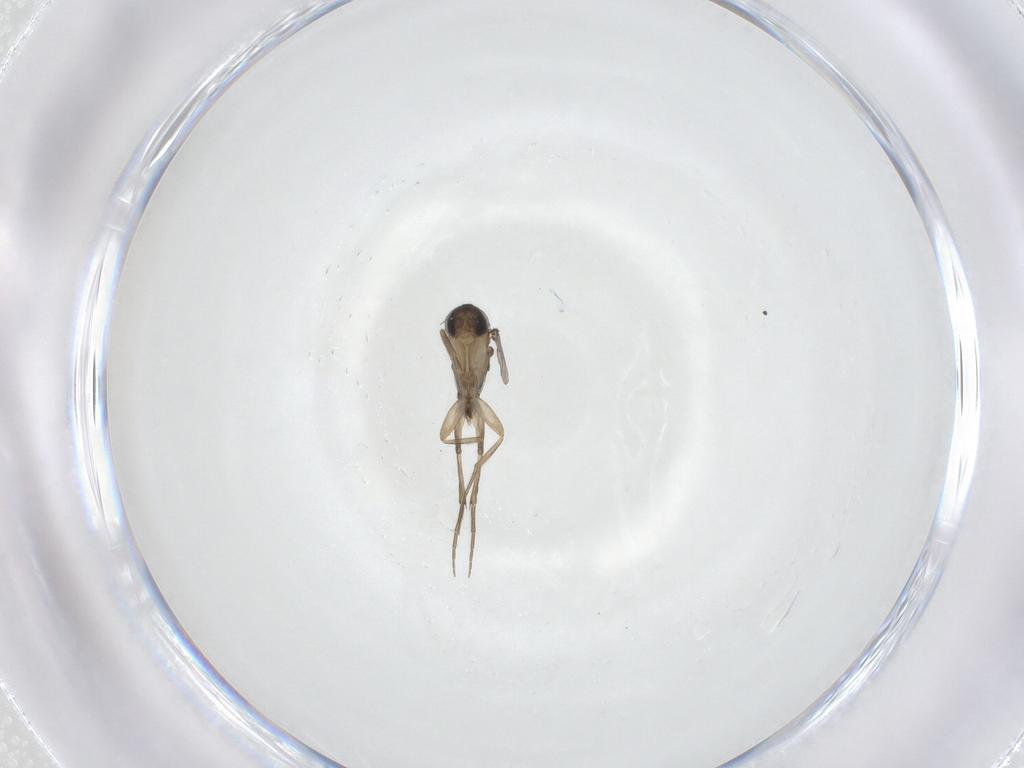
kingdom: Animalia
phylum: Arthropoda
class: Insecta
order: Diptera
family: Phoridae
